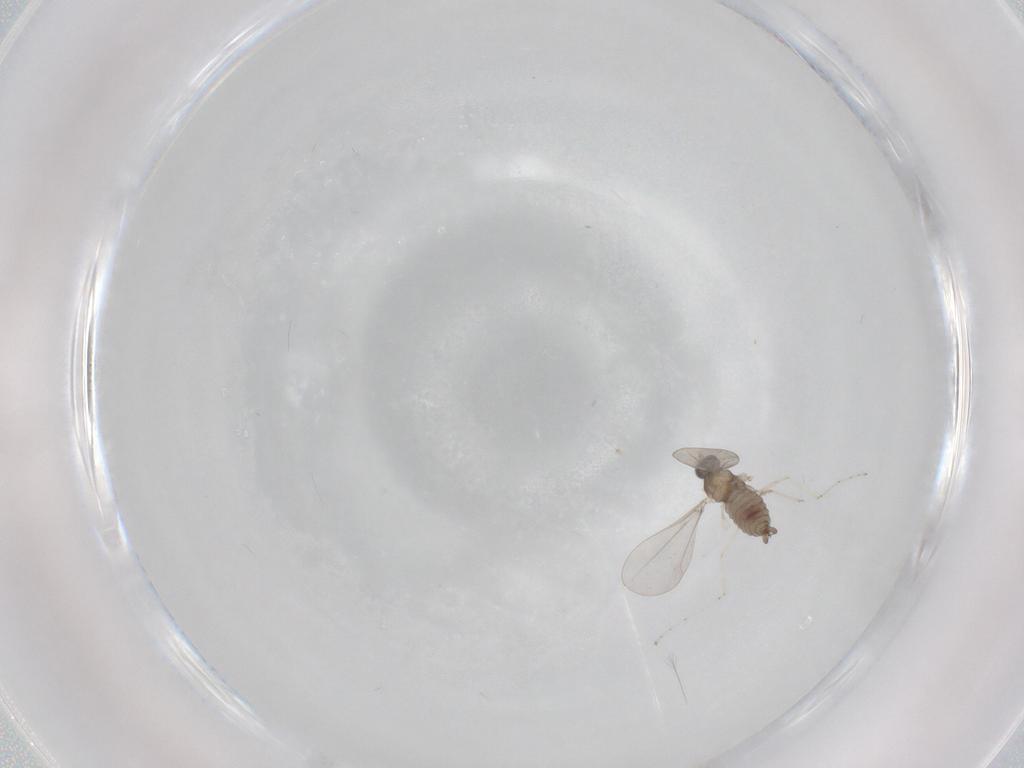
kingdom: Animalia
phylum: Arthropoda
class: Insecta
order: Diptera
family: Cecidomyiidae
